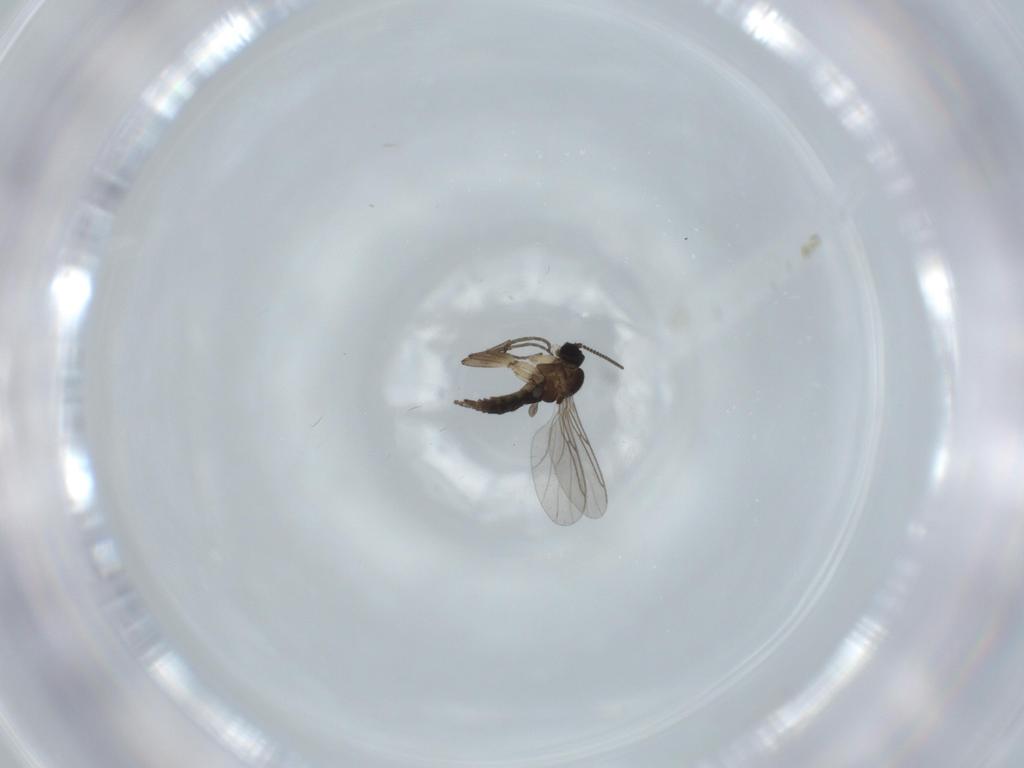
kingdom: Animalia
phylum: Arthropoda
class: Insecta
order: Diptera
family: Sciaridae
